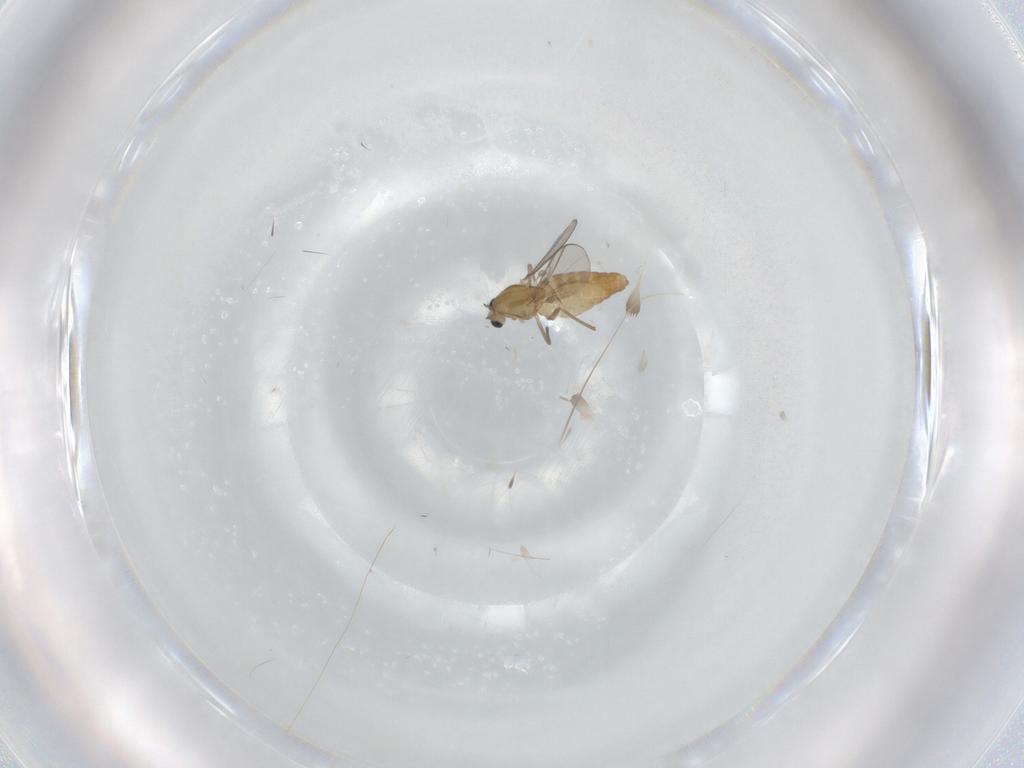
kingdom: Animalia
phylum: Arthropoda
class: Insecta
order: Diptera
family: Chironomidae
